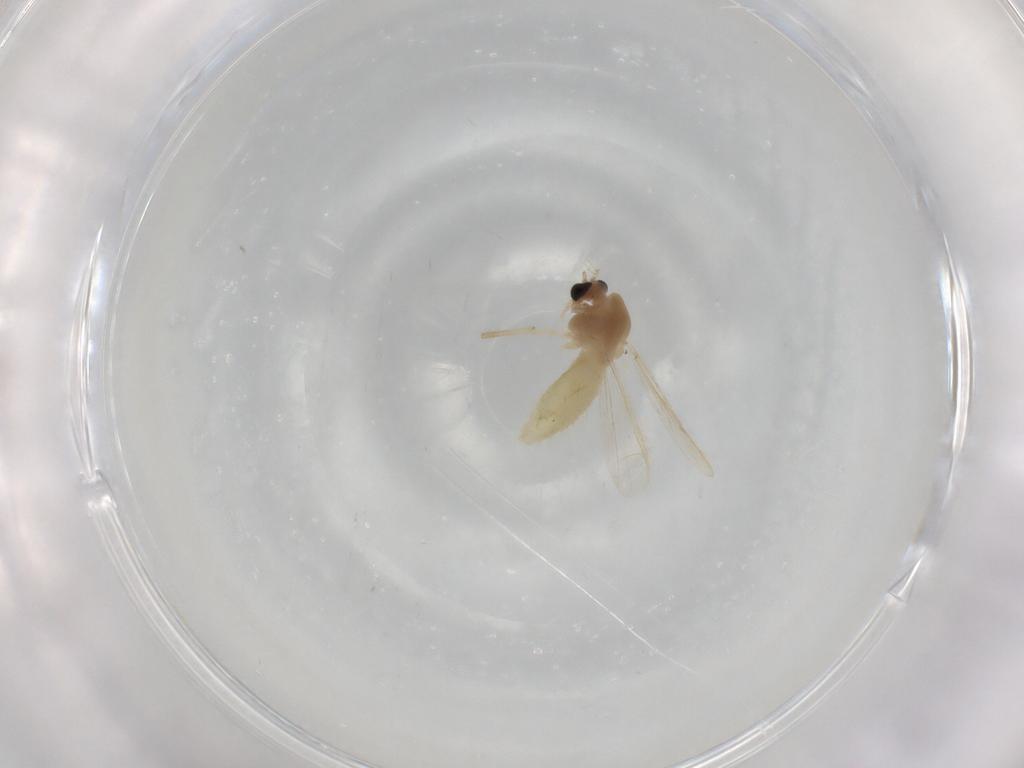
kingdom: Animalia
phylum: Arthropoda
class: Insecta
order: Diptera
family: Chironomidae
